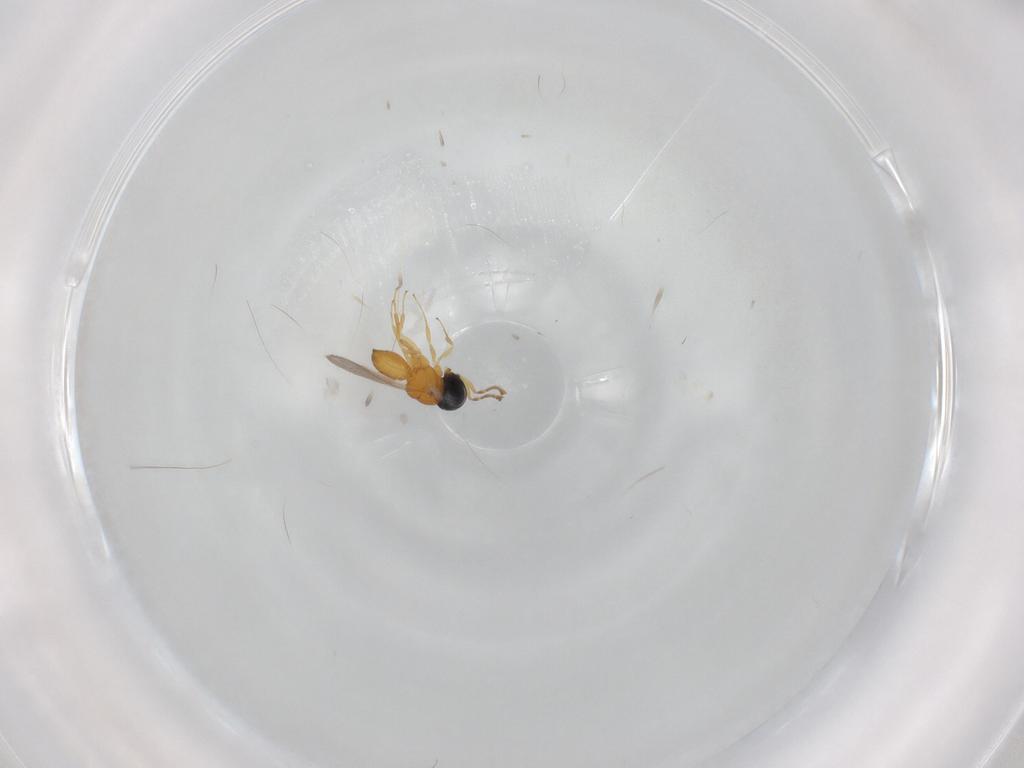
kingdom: Animalia
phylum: Arthropoda
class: Insecta
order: Hymenoptera
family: Scelionidae
